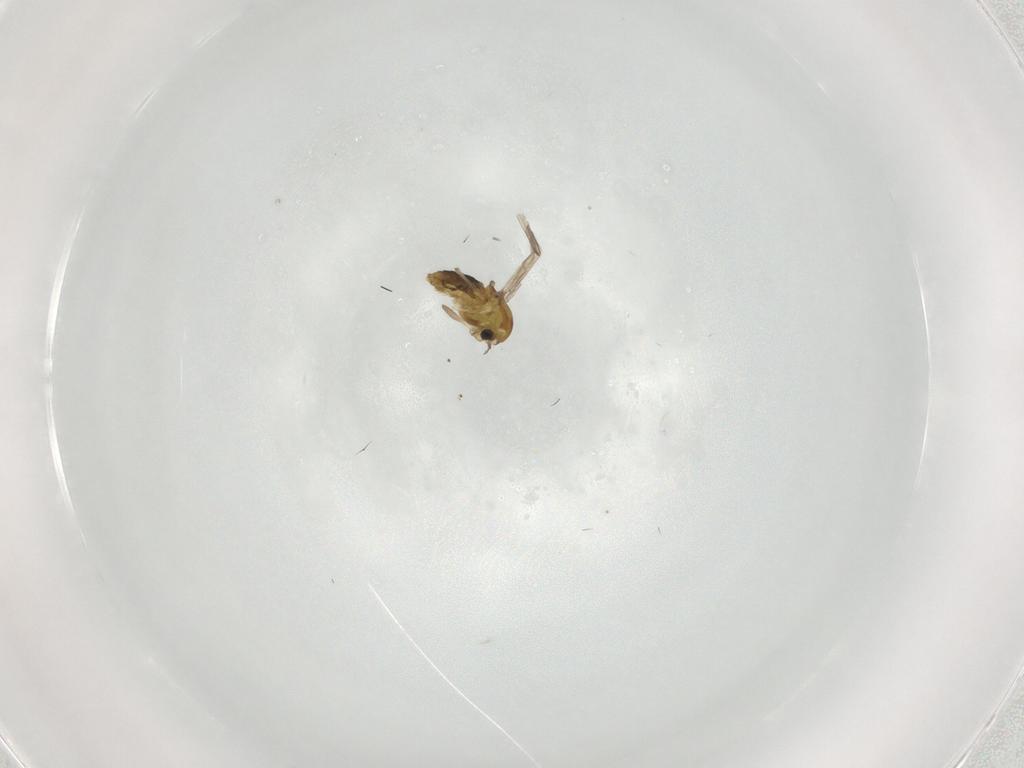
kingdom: Animalia
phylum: Arthropoda
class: Insecta
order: Diptera
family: Chironomidae
